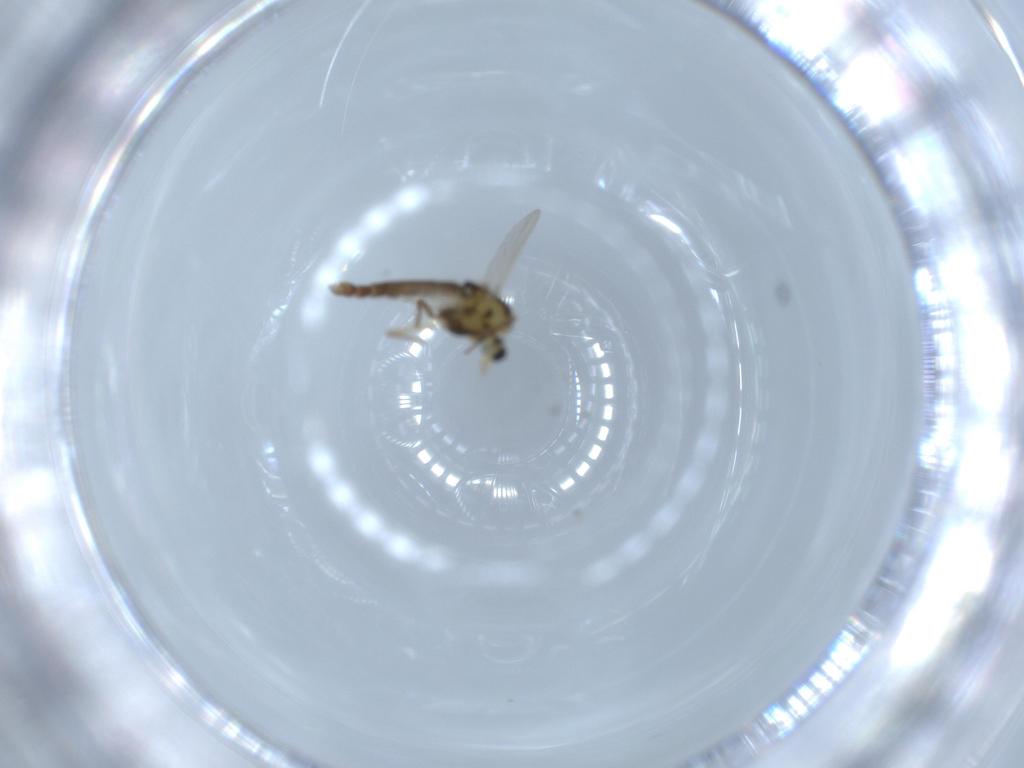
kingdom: Animalia
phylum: Arthropoda
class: Insecta
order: Diptera
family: Chironomidae
